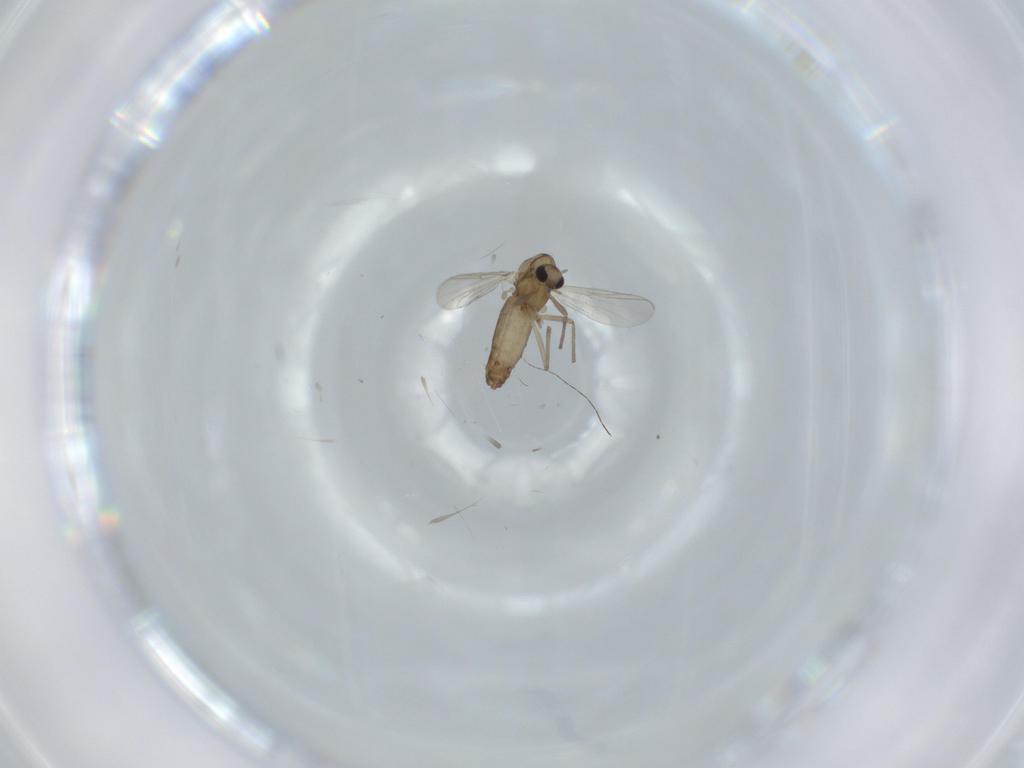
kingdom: Animalia
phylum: Arthropoda
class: Insecta
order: Diptera
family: Chironomidae
